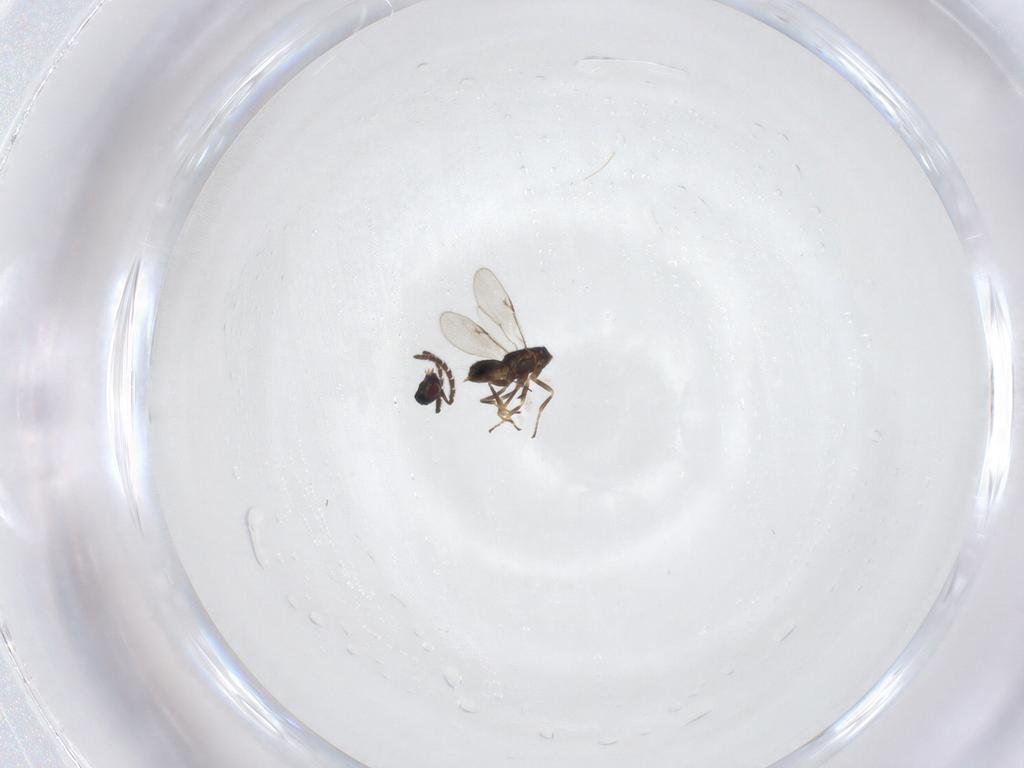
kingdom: Animalia
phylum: Arthropoda
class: Insecta
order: Hymenoptera
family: Encyrtidae
